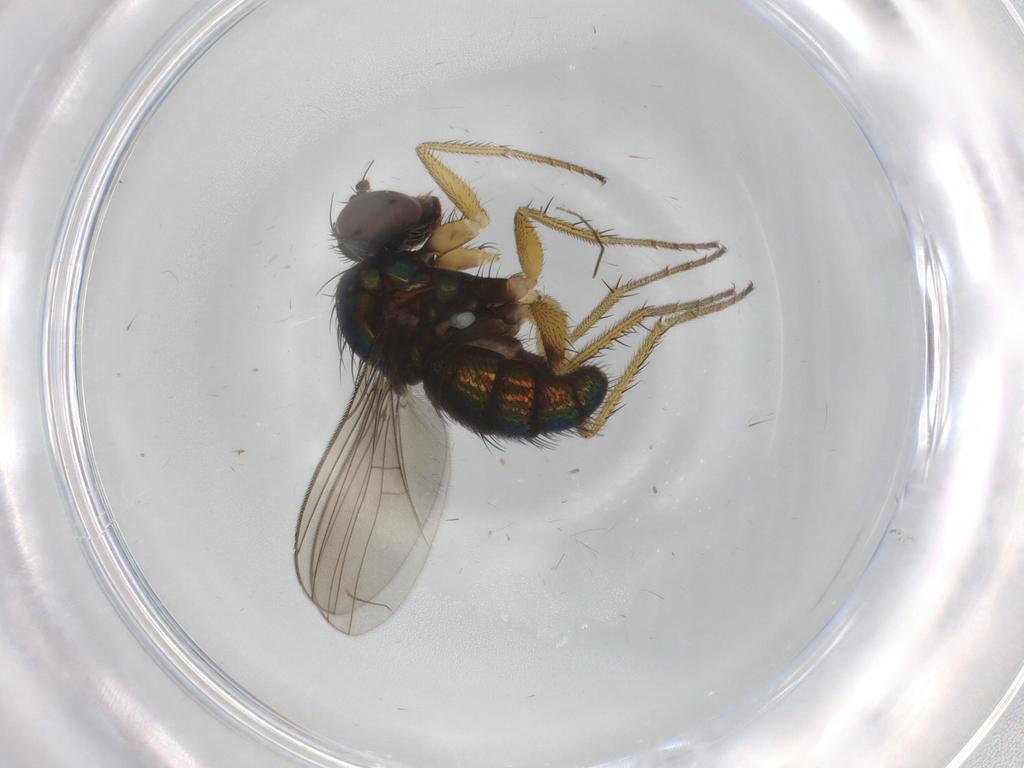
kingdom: Animalia
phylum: Arthropoda
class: Insecta
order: Diptera
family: Dolichopodidae
